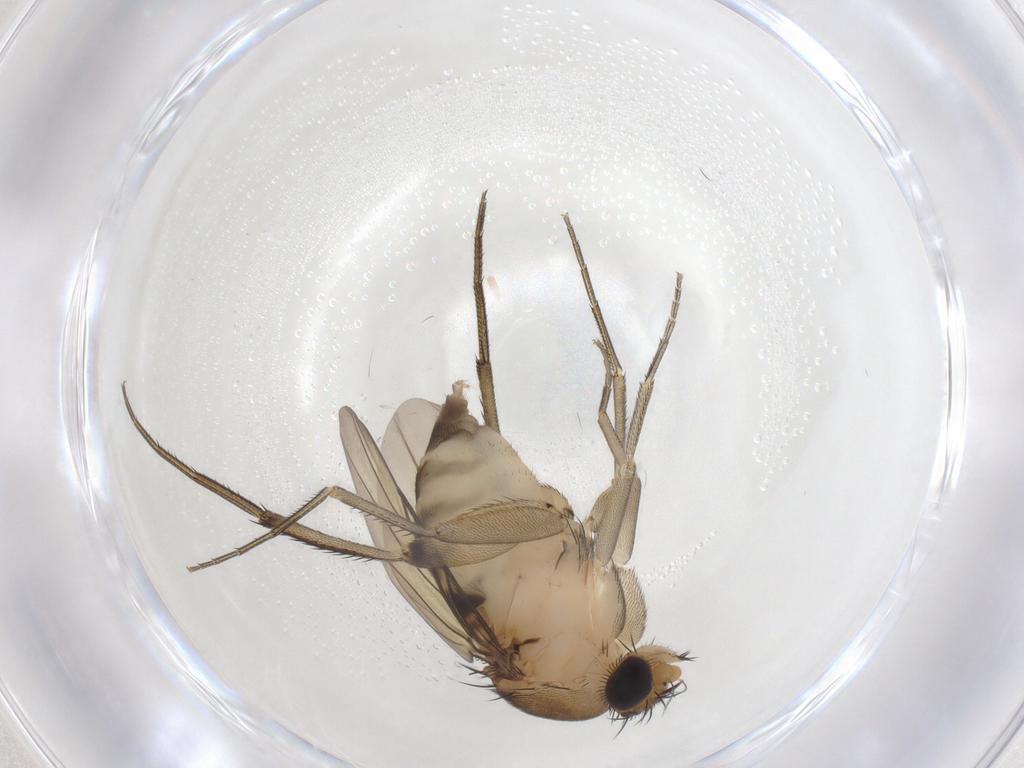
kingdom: Animalia
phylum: Arthropoda
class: Insecta
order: Diptera
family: Phoridae
